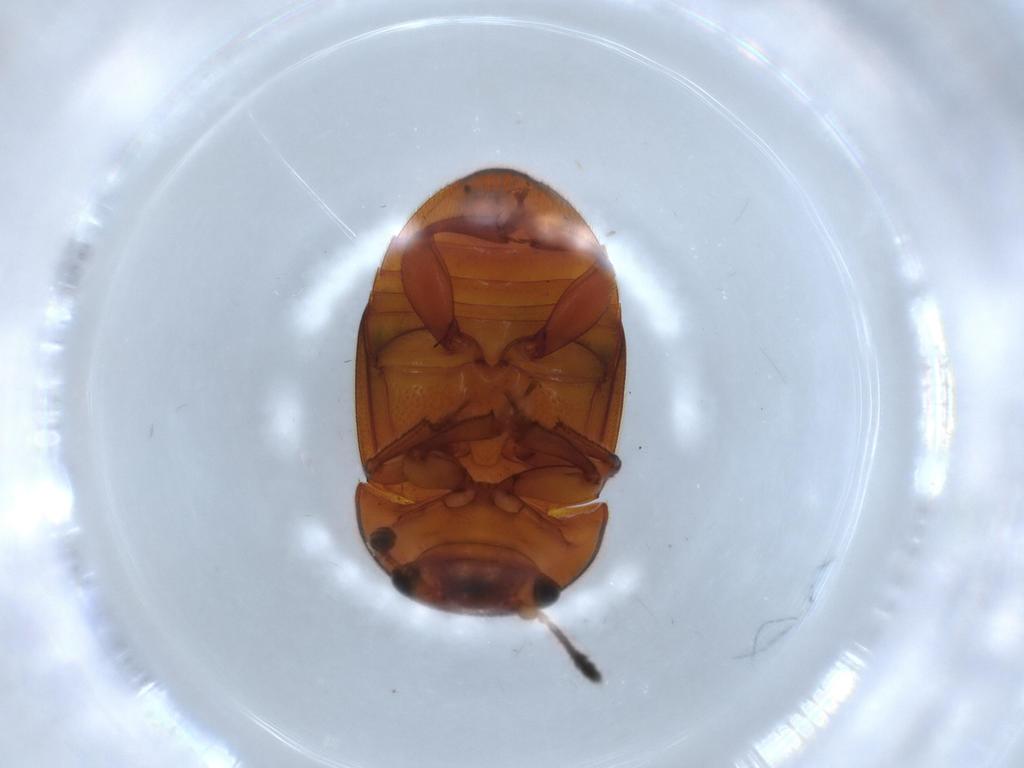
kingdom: Animalia
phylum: Arthropoda
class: Insecta
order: Coleoptera
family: Nitidulidae
